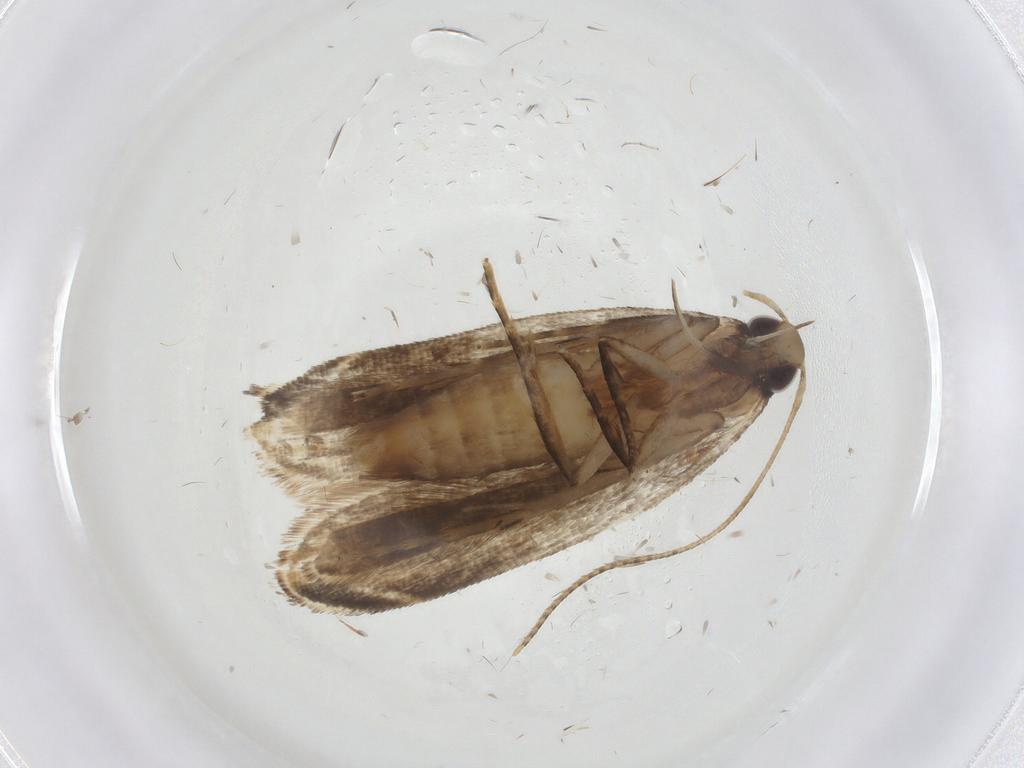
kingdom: Animalia
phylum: Arthropoda
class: Insecta
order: Lepidoptera
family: Gelechiidae
